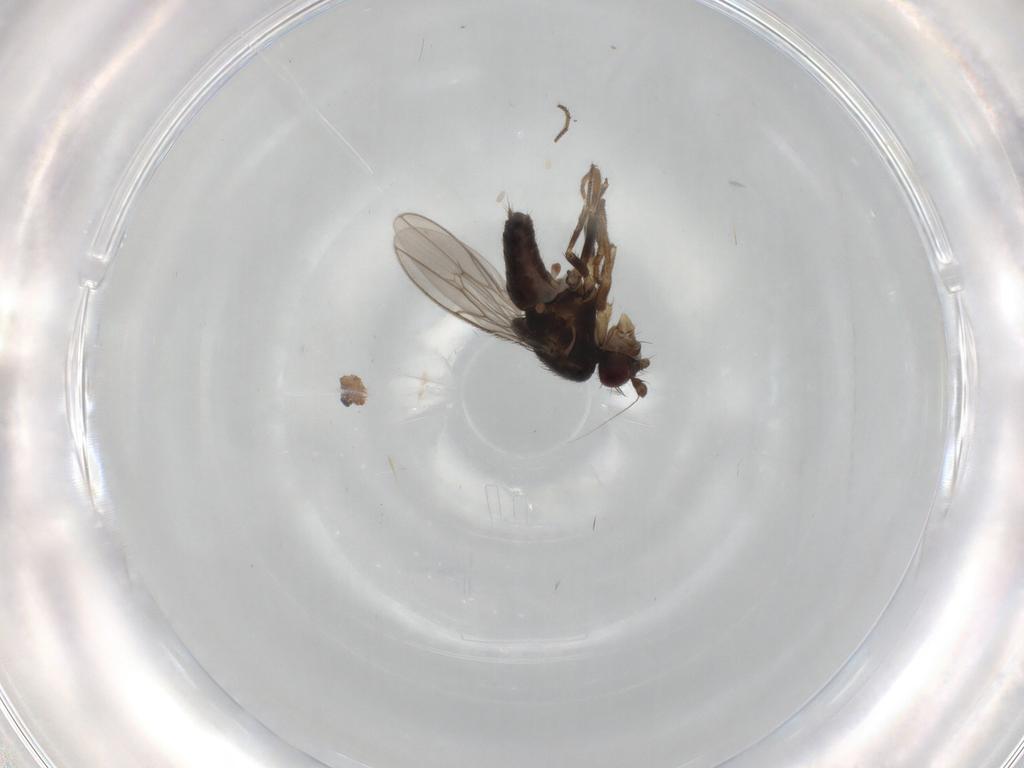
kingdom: Animalia
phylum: Arthropoda
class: Insecta
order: Diptera
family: Sphaeroceridae
